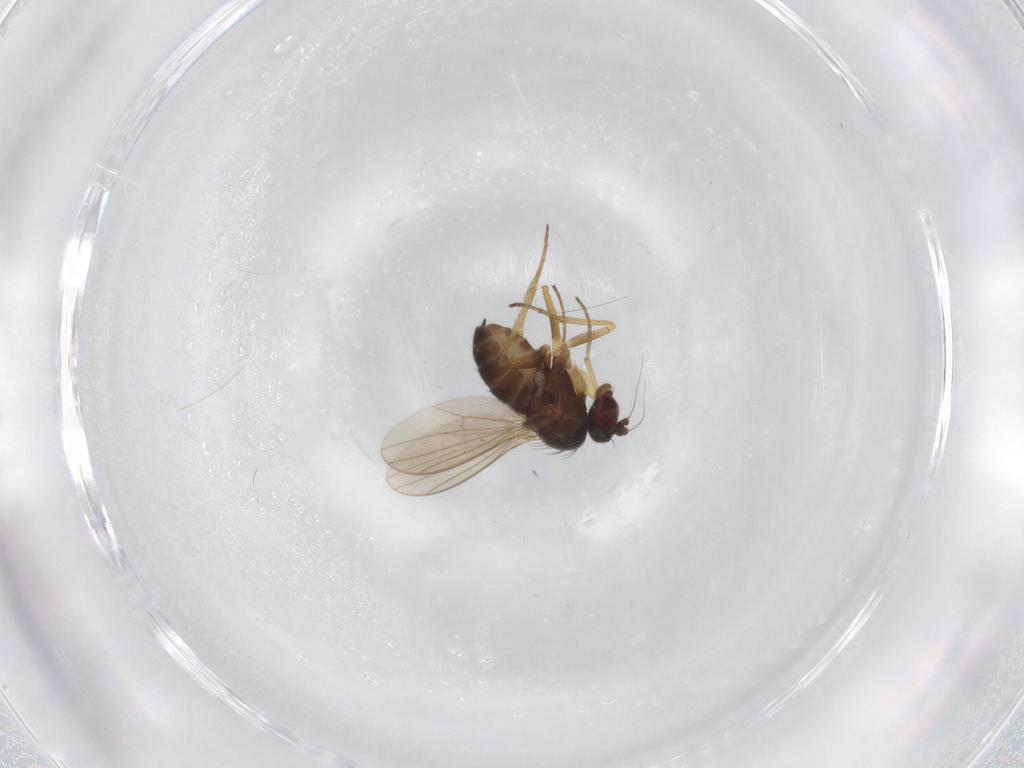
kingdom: Animalia
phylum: Arthropoda
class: Insecta
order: Diptera
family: Dolichopodidae
